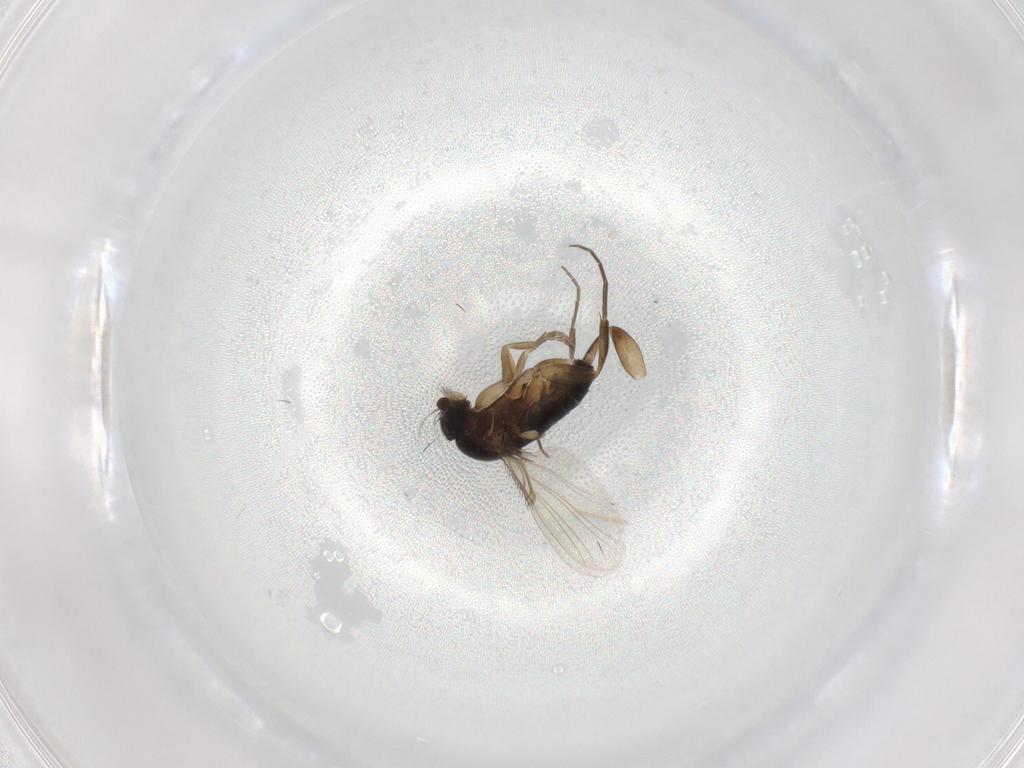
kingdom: Animalia
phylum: Arthropoda
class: Insecta
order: Diptera
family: Phoridae
